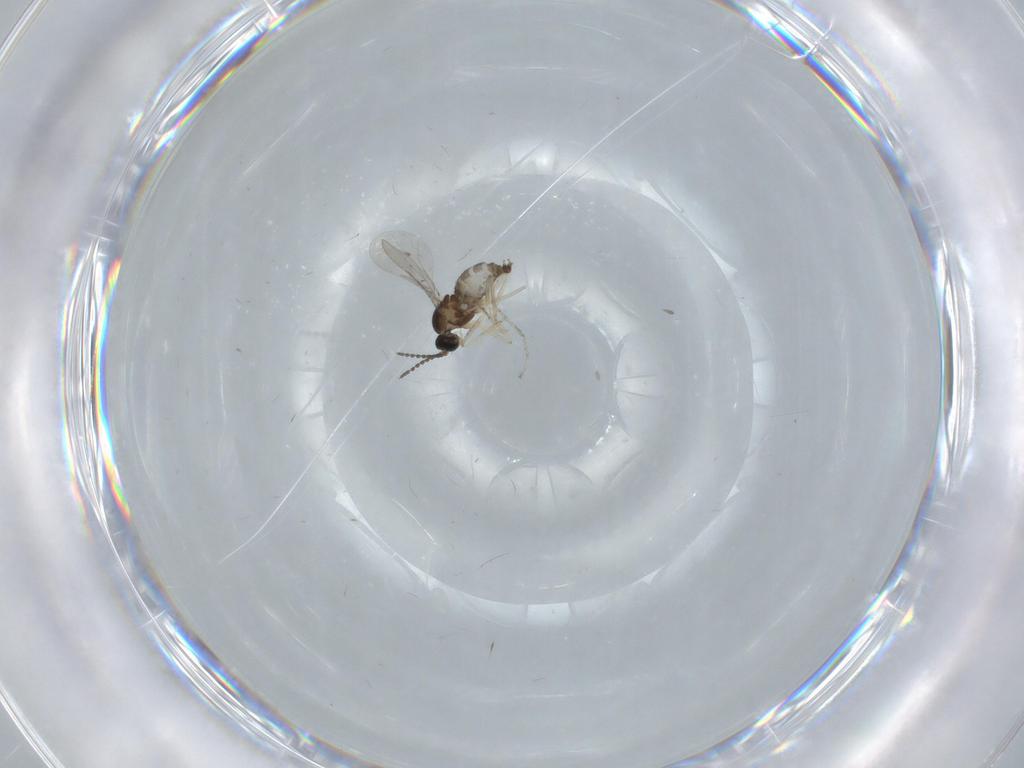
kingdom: Animalia
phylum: Arthropoda
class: Insecta
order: Diptera
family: Cecidomyiidae
